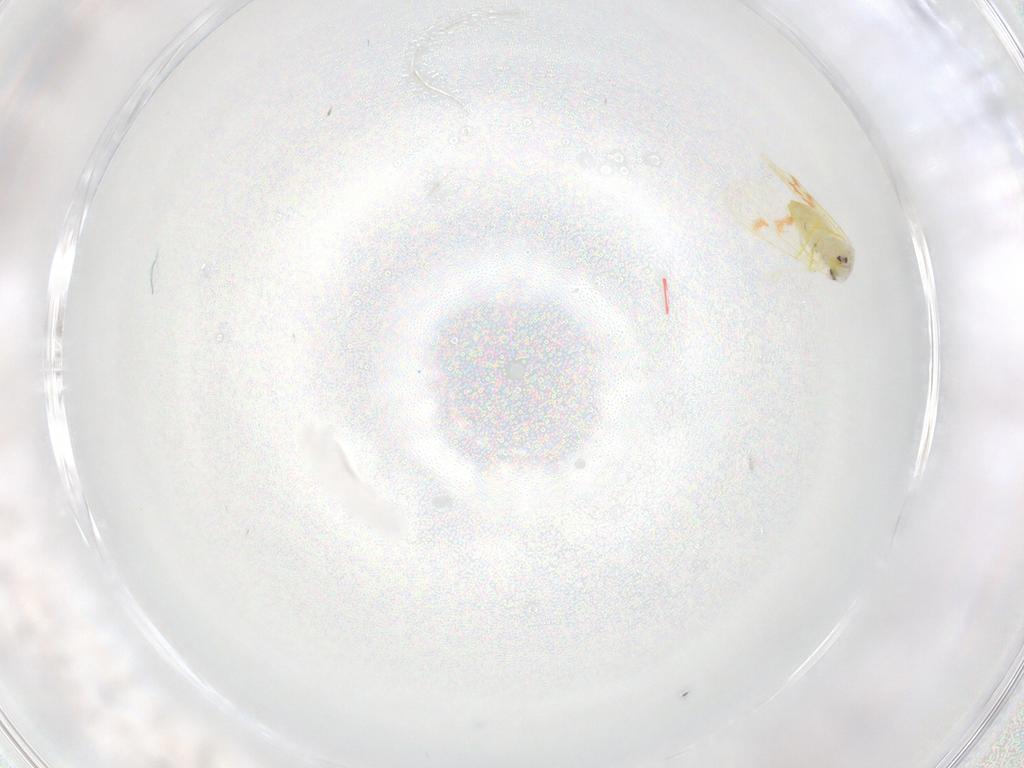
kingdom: Animalia
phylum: Arthropoda
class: Insecta
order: Hemiptera
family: Aleyrodidae
